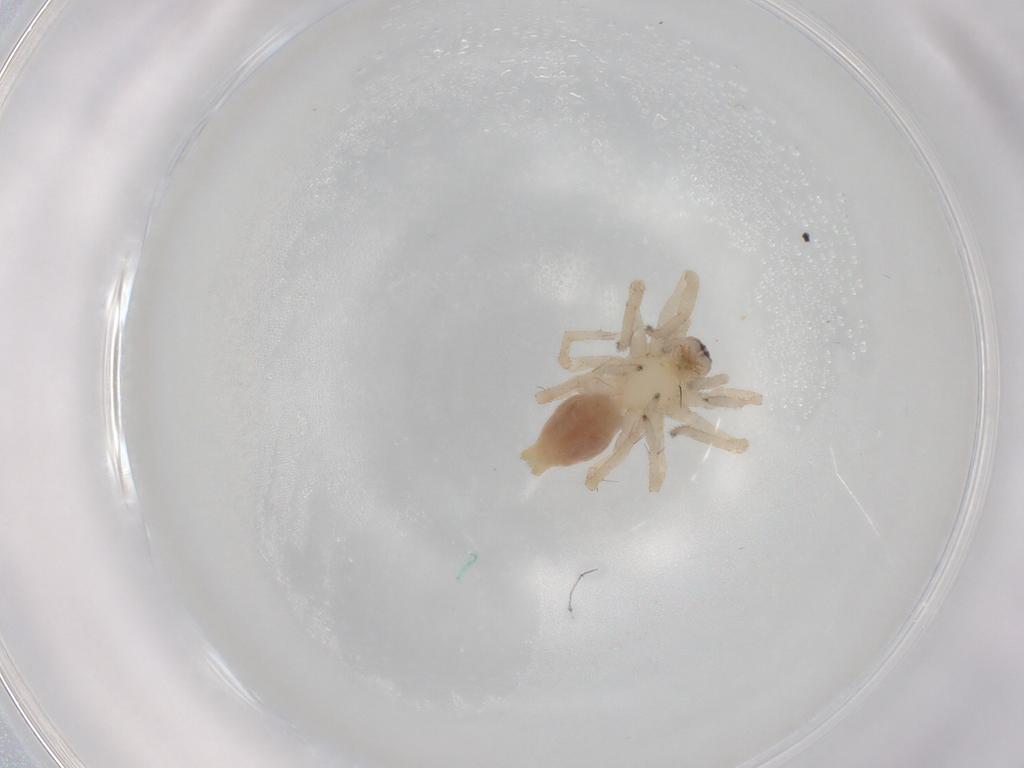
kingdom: Animalia
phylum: Arthropoda
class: Arachnida
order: Araneae
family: Clubionidae
